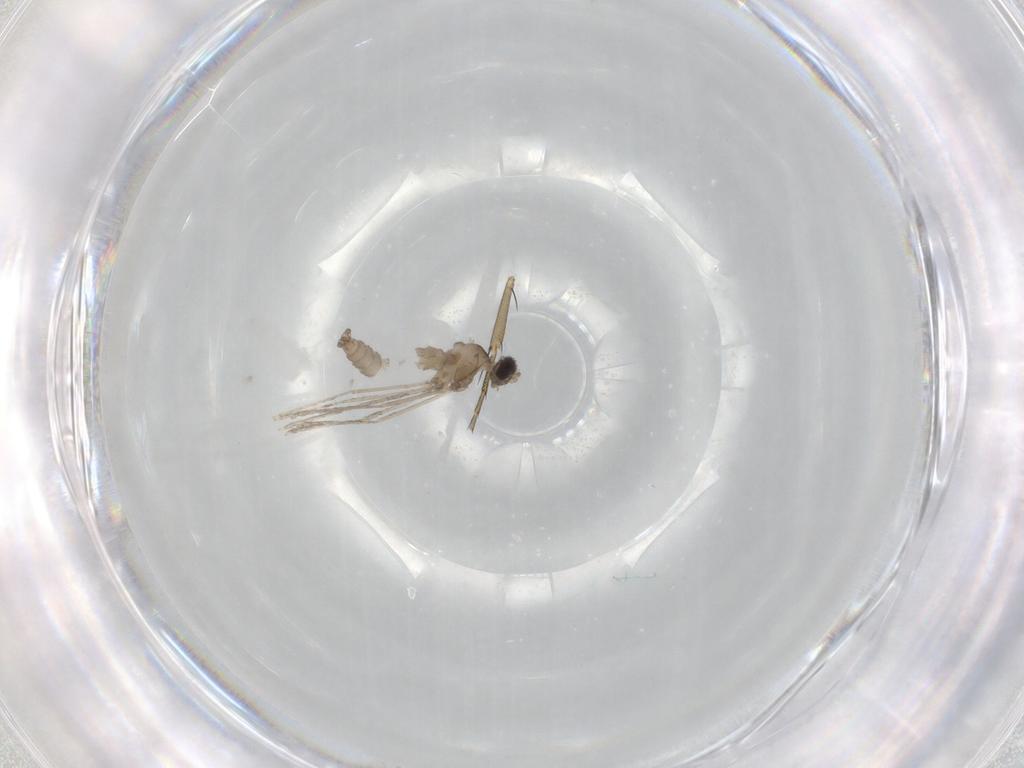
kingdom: Animalia
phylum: Arthropoda
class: Insecta
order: Diptera
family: Cecidomyiidae
